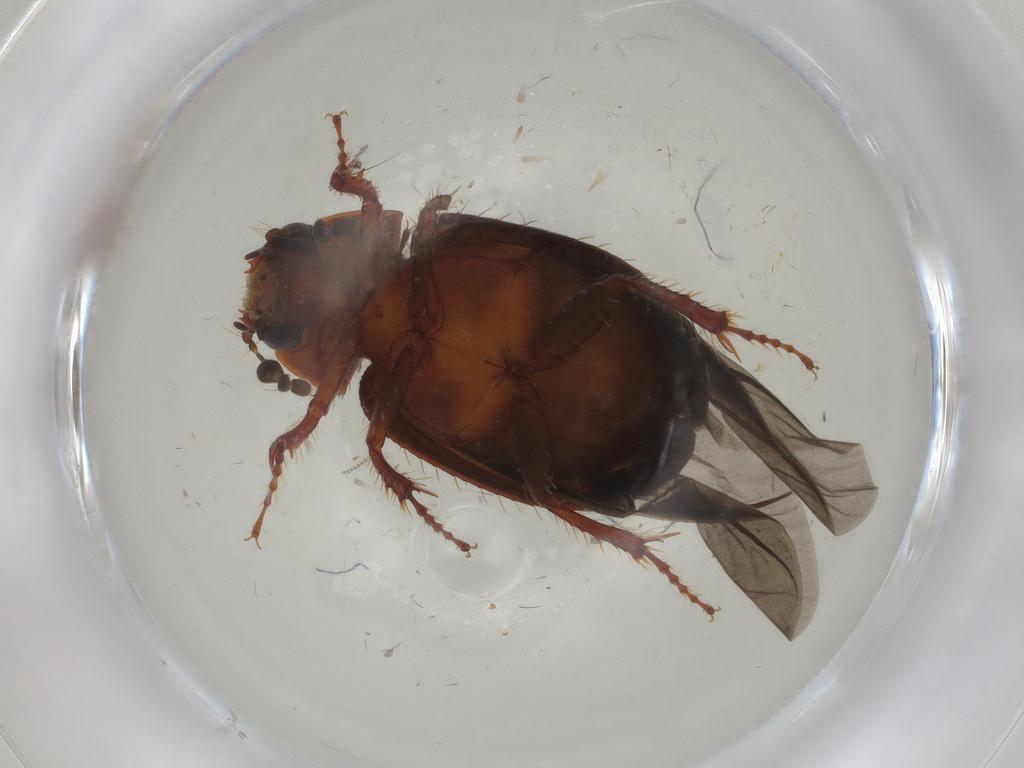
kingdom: Animalia
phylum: Arthropoda
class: Insecta
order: Coleoptera
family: Hybosoridae
